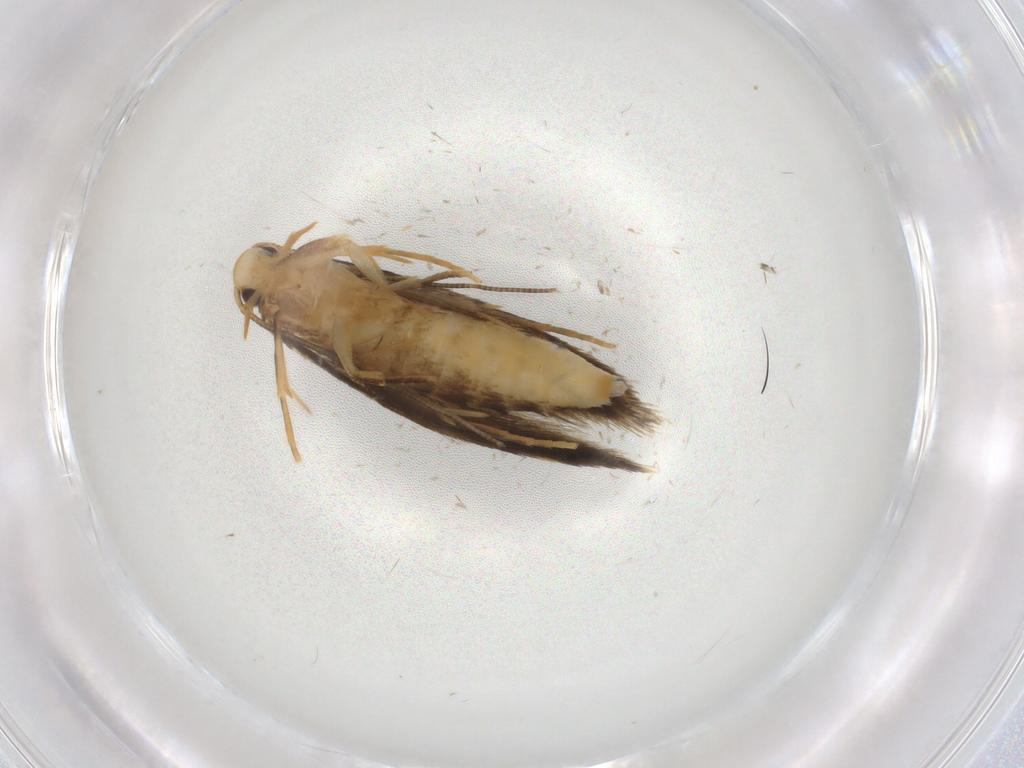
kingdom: Animalia
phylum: Arthropoda
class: Insecta
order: Lepidoptera
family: Tineidae
